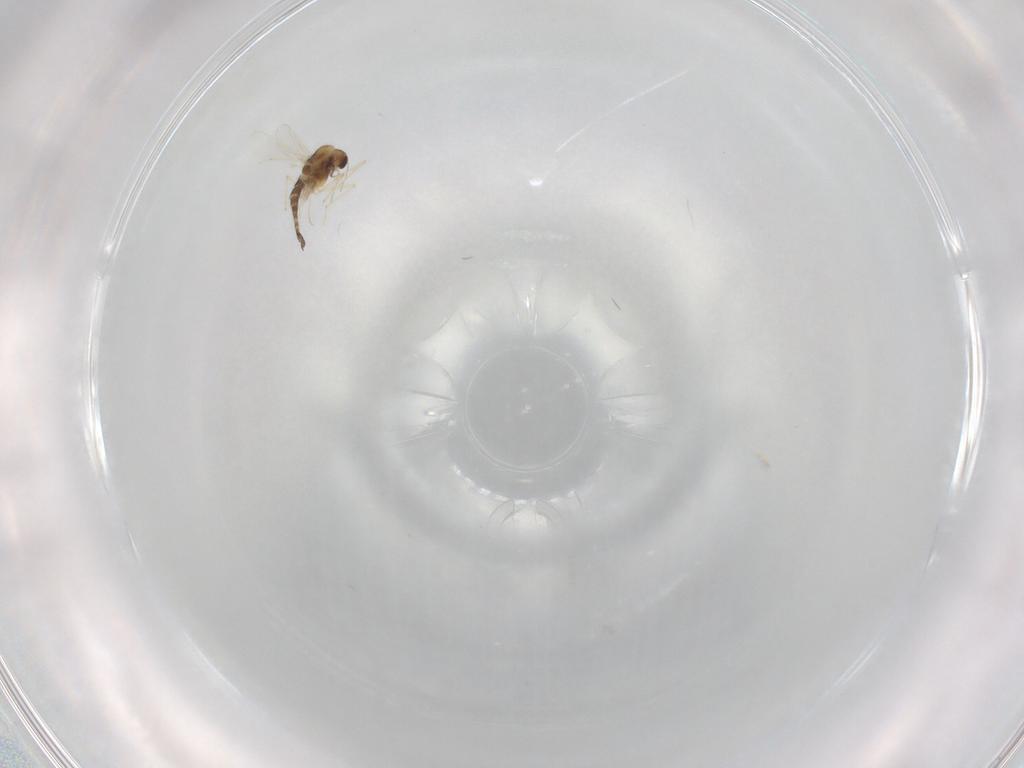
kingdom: Animalia
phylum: Arthropoda
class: Insecta
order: Diptera
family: Chironomidae
